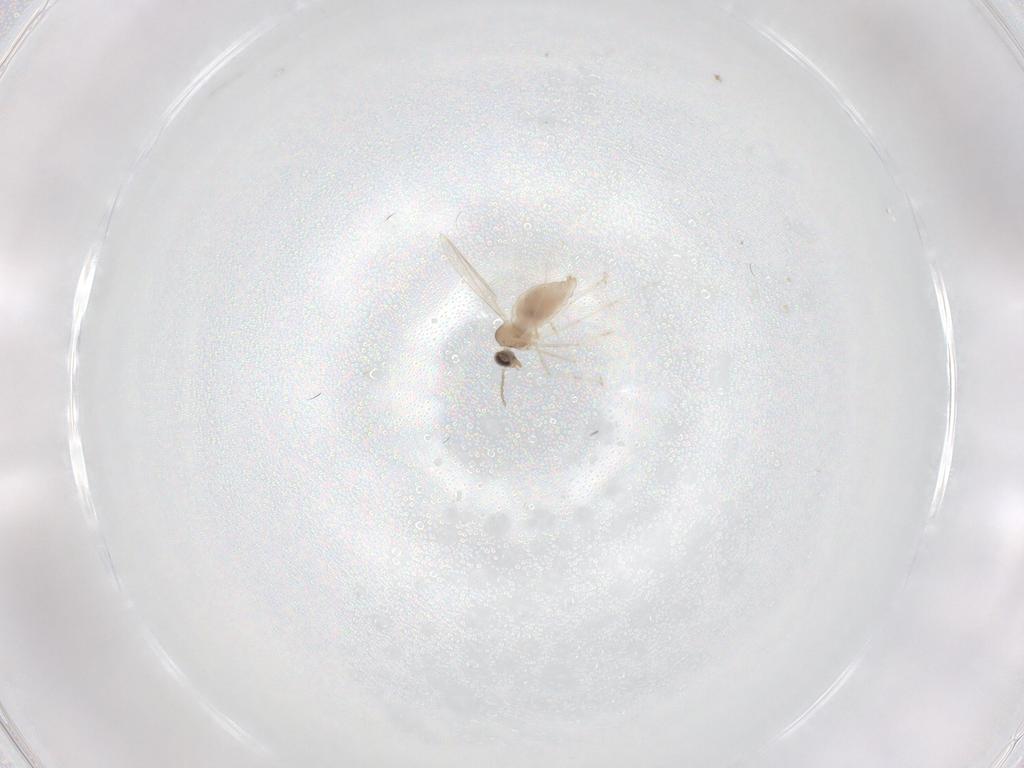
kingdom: Animalia
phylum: Arthropoda
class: Insecta
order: Diptera
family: Cecidomyiidae
